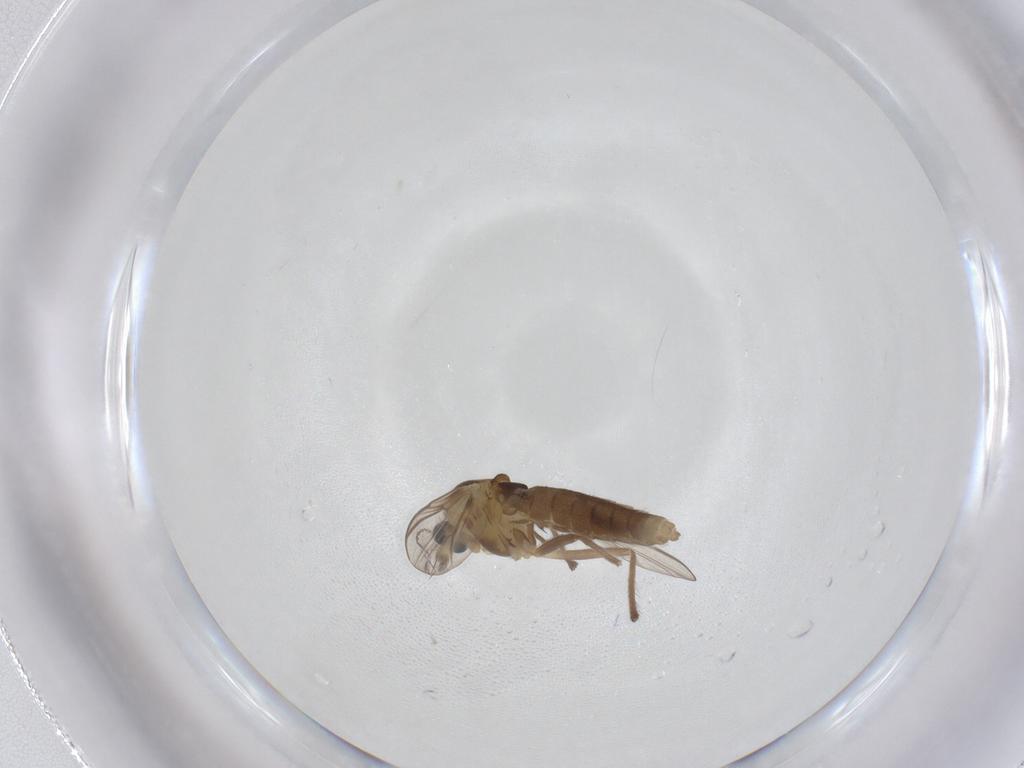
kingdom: Animalia
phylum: Arthropoda
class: Insecta
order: Diptera
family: Chironomidae
